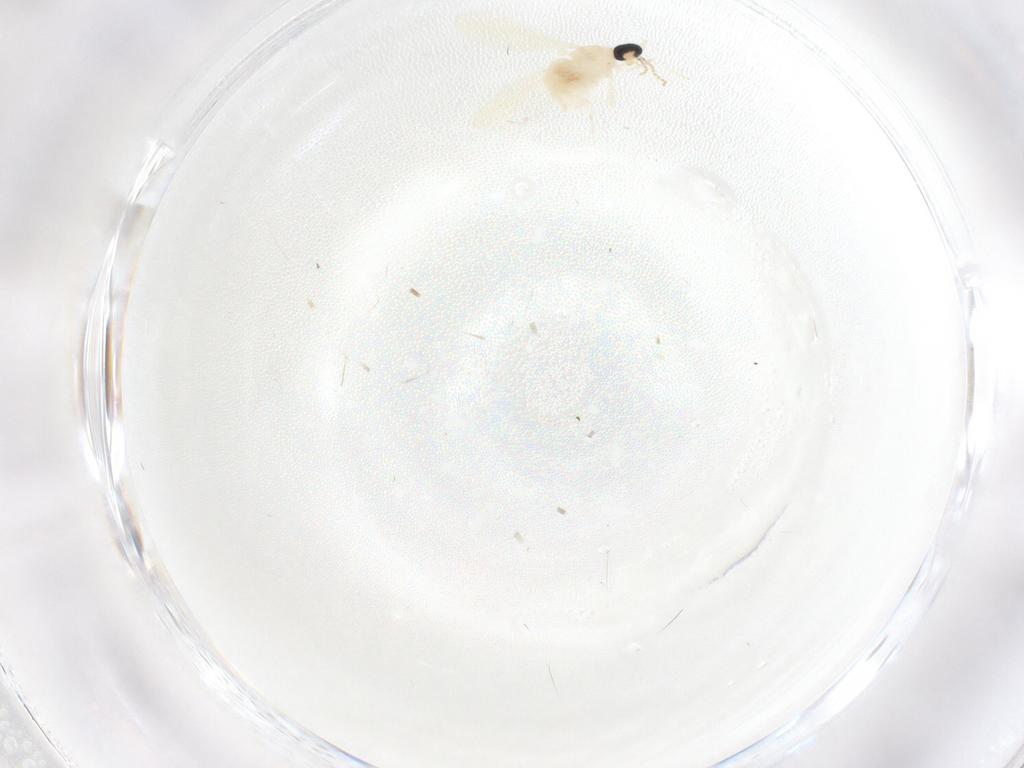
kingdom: Animalia
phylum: Arthropoda
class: Insecta
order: Diptera
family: Cecidomyiidae
